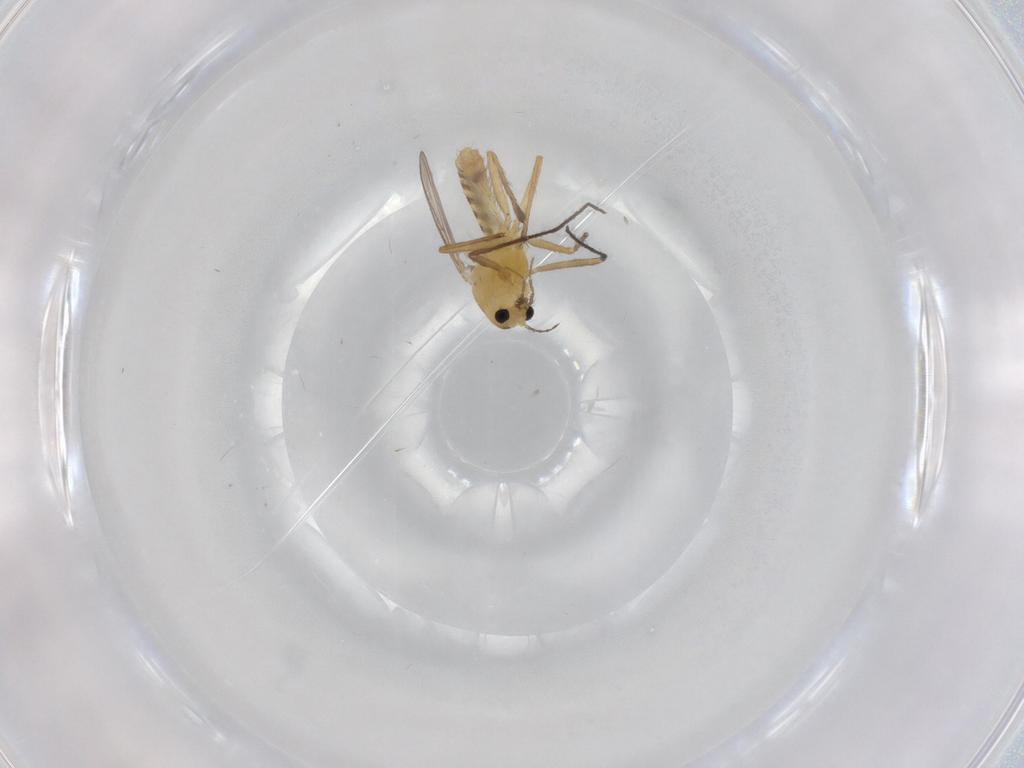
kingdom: Animalia
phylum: Arthropoda
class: Insecta
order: Diptera
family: Chironomidae
